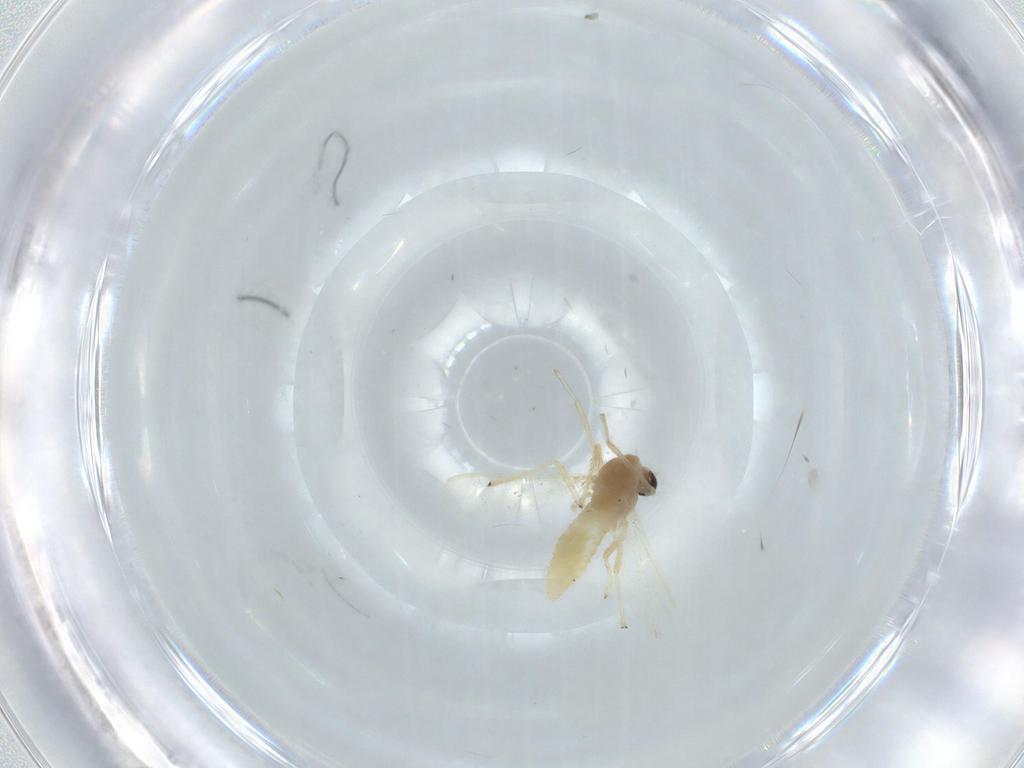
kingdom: Animalia
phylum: Arthropoda
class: Insecta
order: Diptera
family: Chironomidae
